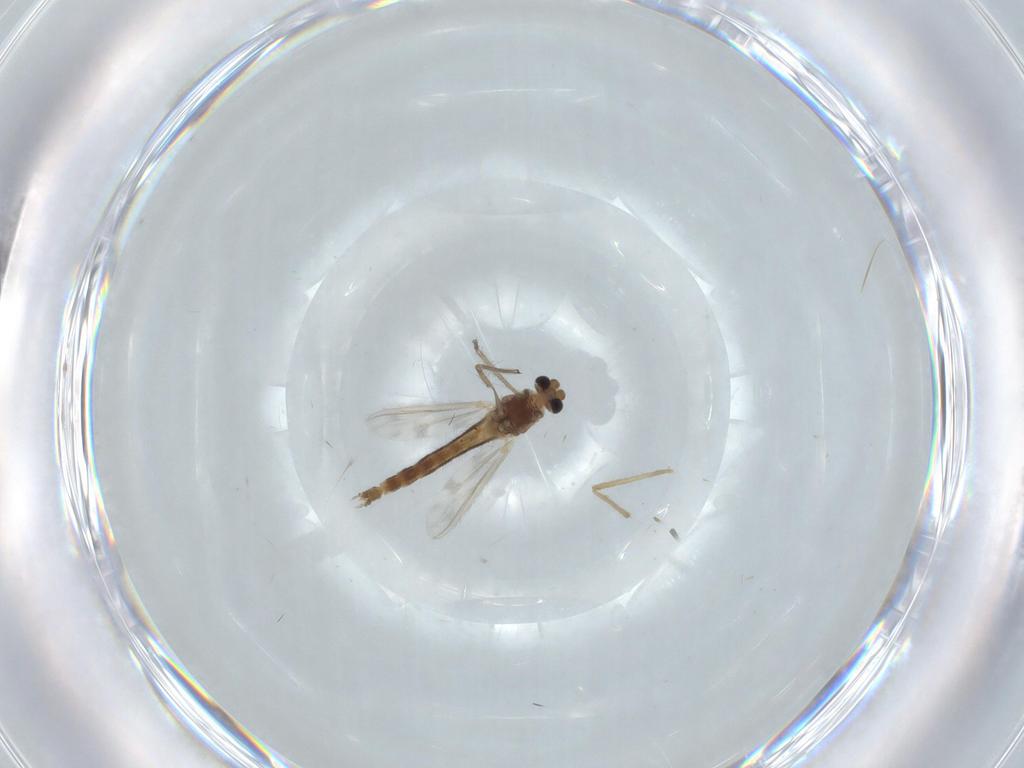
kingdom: Animalia
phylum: Arthropoda
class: Insecta
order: Diptera
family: Chironomidae
